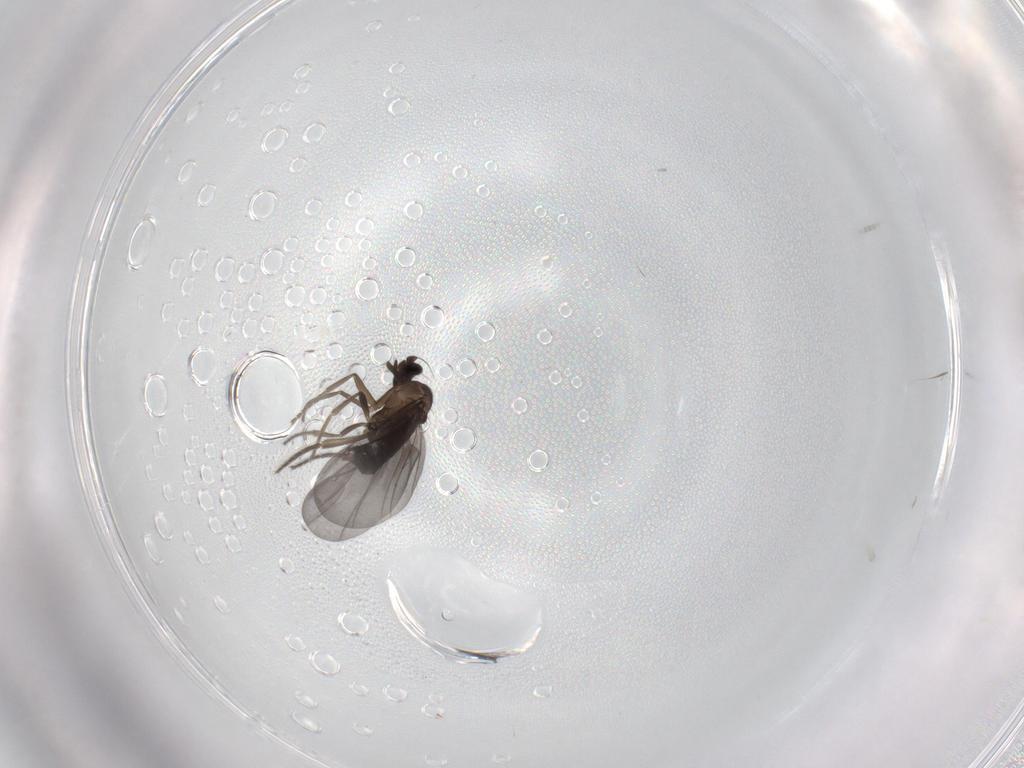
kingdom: Animalia
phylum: Arthropoda
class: Insecta
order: Diptera
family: Phoridae
